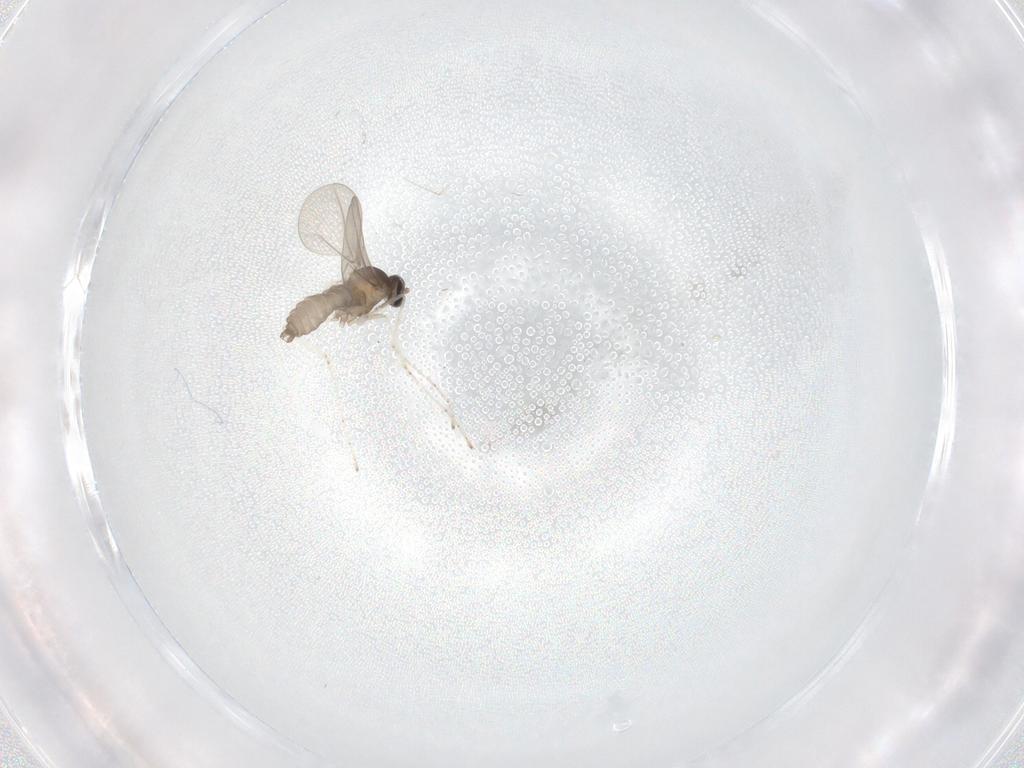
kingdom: Animalia
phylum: Arthropoda
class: Insecta
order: Diptera
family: Cecidomyiidae
